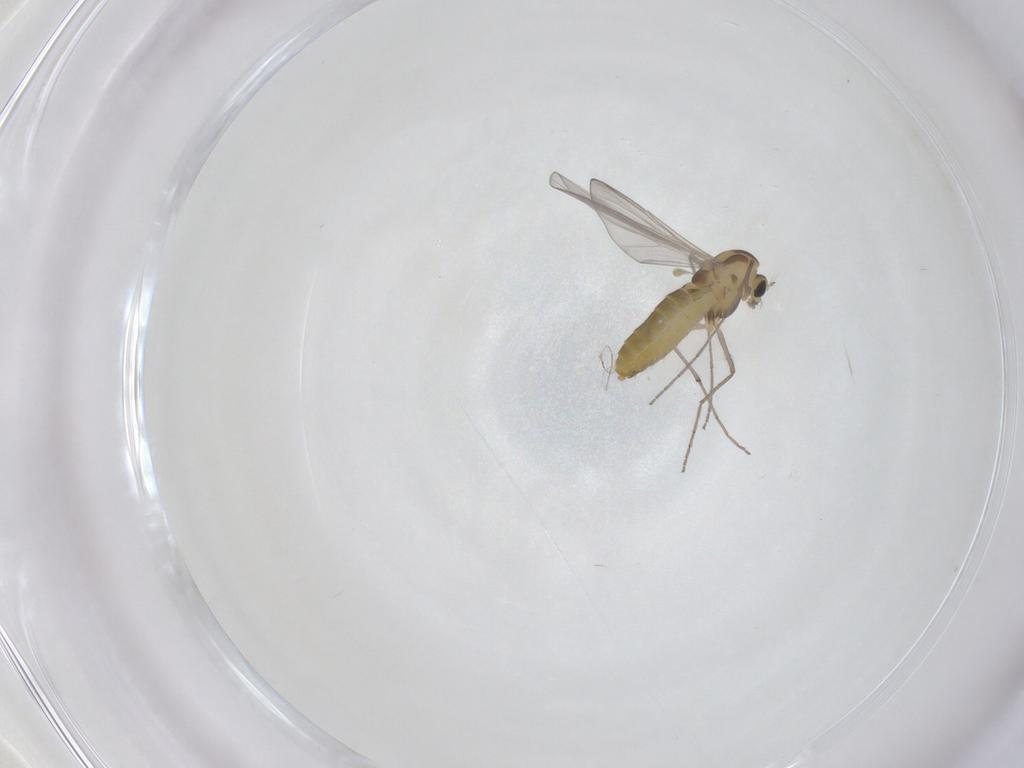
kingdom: Animalia
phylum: Arthropoda
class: Insecta
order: Diptera
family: Chironomidae
